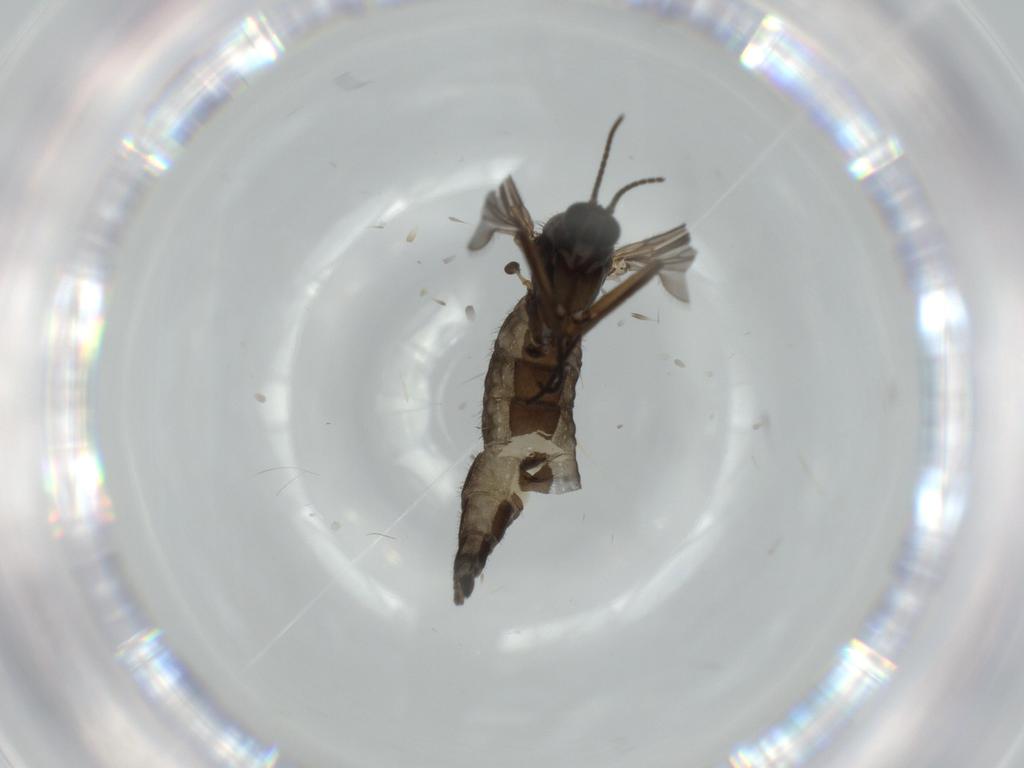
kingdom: Animalia
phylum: Arthropoda
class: Insecta
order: Diptera
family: Sciaridae
